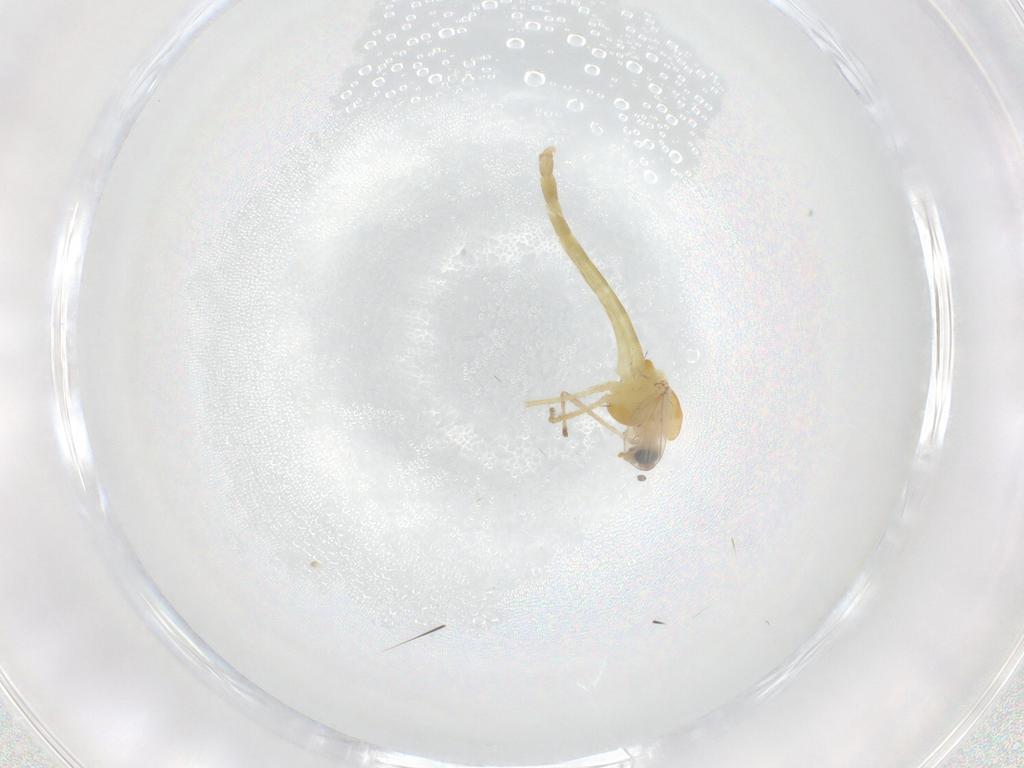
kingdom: Animalia
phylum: Arthropoda
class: Insecta
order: Diptera
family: Chironomidae
